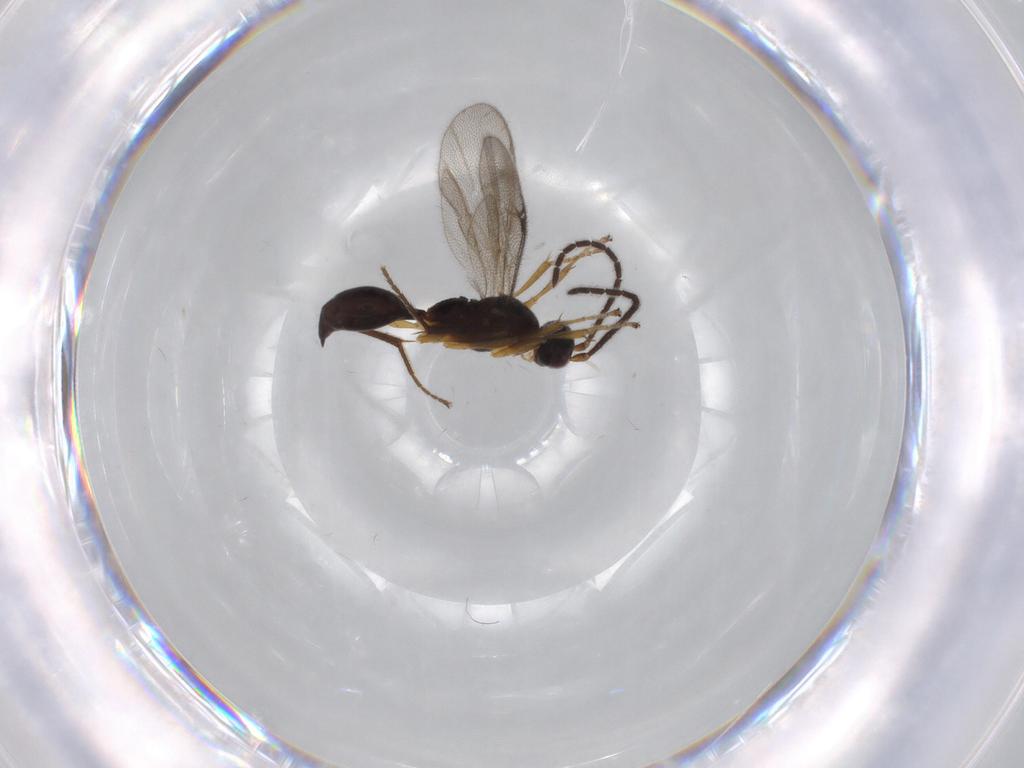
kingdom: Animalia
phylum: Arthropoda
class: Insecta
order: Hymenoptera
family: Proctotrupidae
